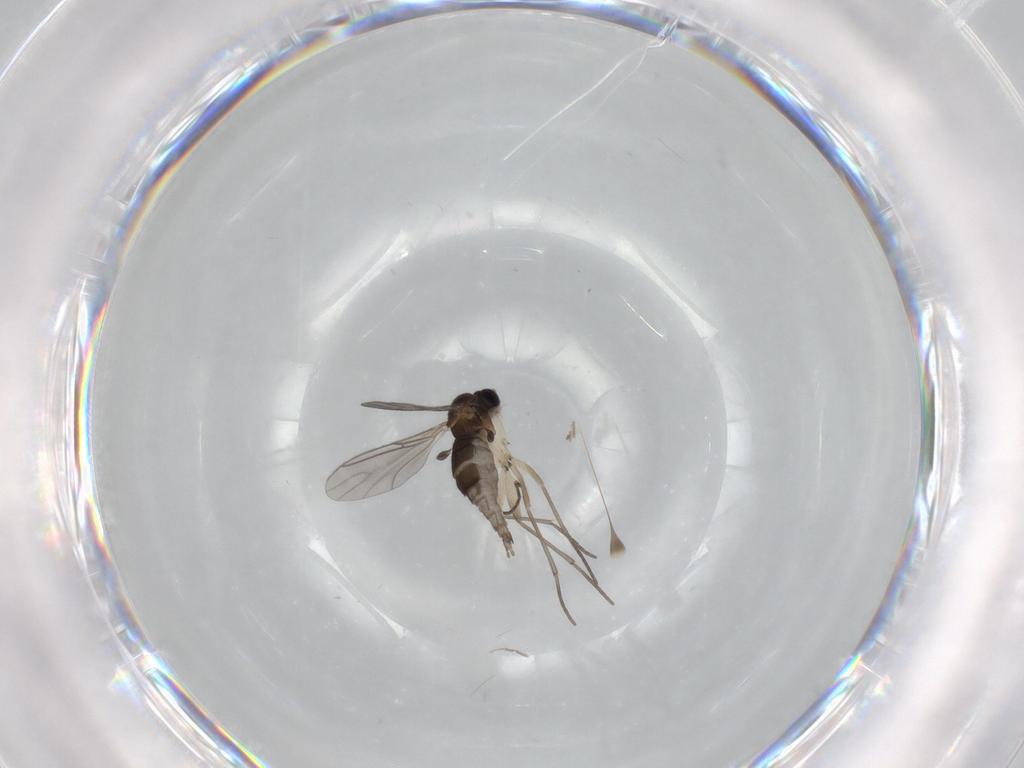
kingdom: Animalia
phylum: Arthropoda
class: Insecta
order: Diptera
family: Sciaridae
